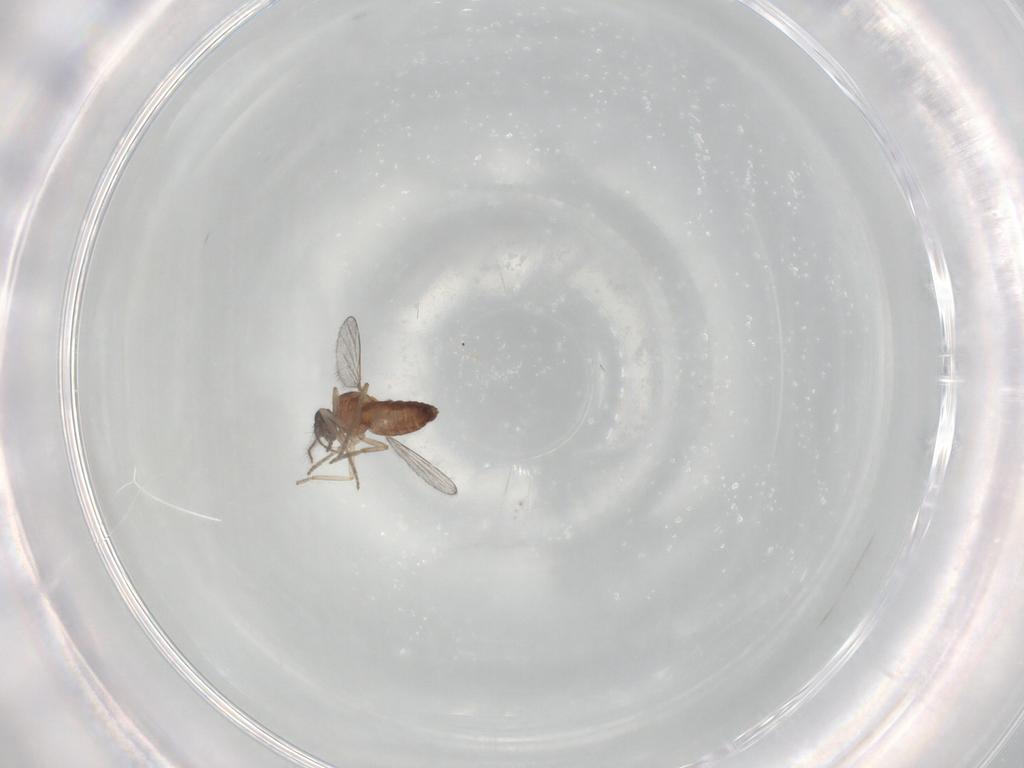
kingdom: Animalia
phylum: Arthropoda
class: Insecta
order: Diptera
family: Ceratopogonidae
